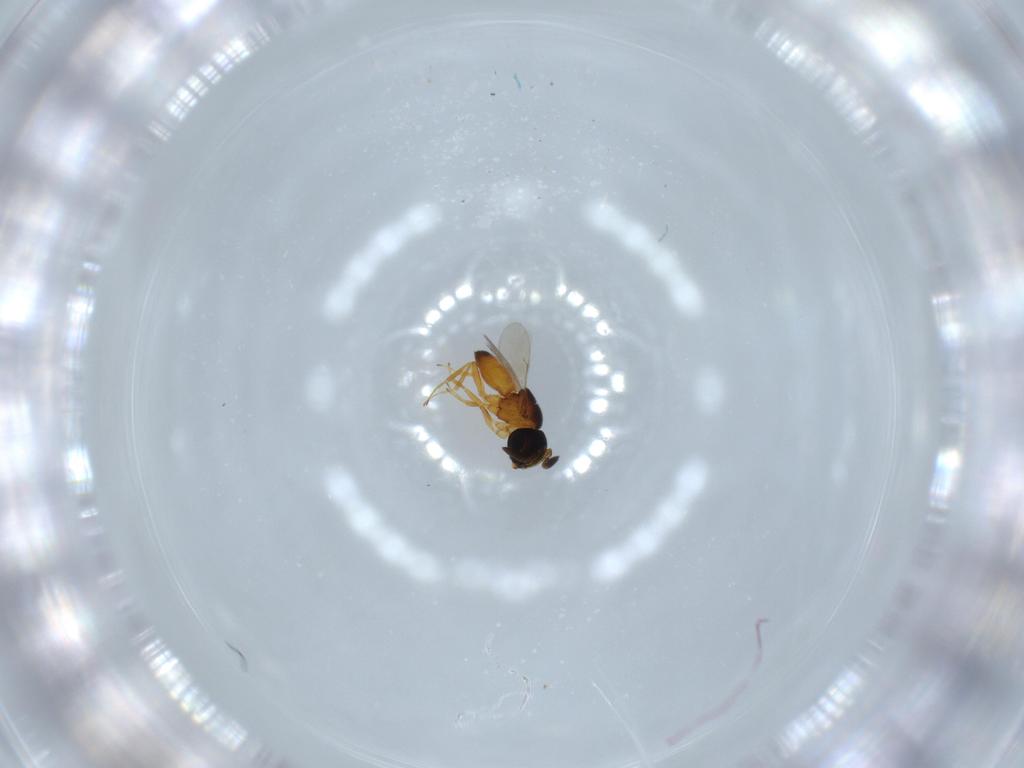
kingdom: Animalia
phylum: Arthropoda
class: Insecta
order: Hymenoptera
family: Scelionidae
